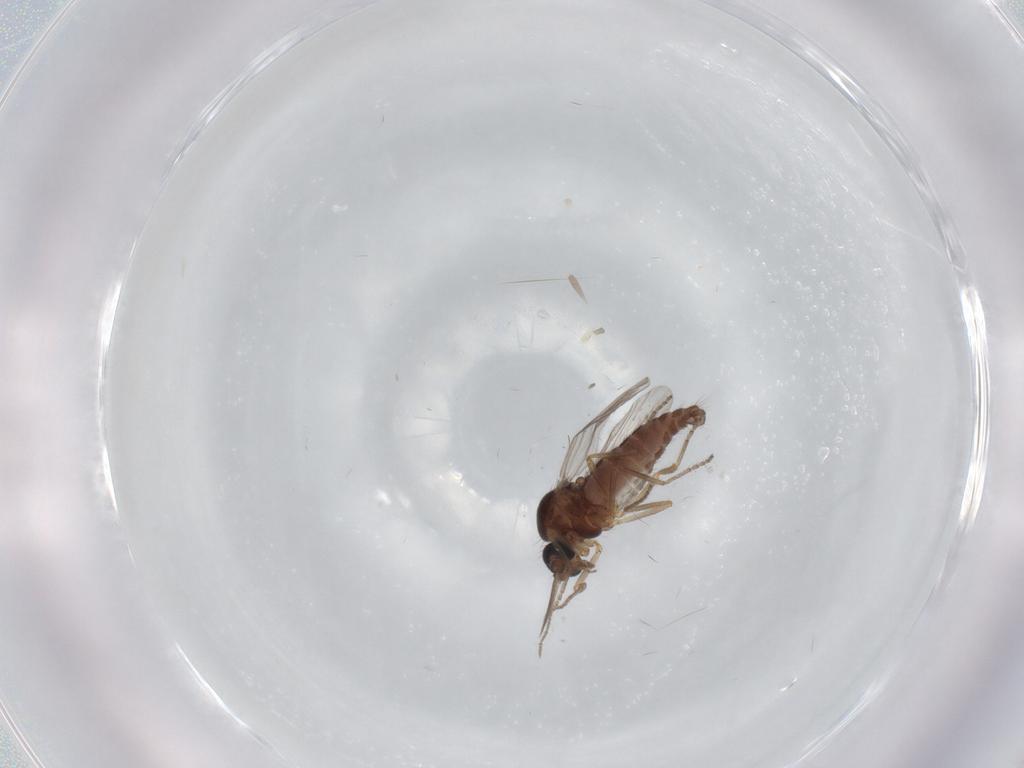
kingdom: Animalia
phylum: Arthropoda
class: Insecta
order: Diptera
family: Ceratopogonidae
